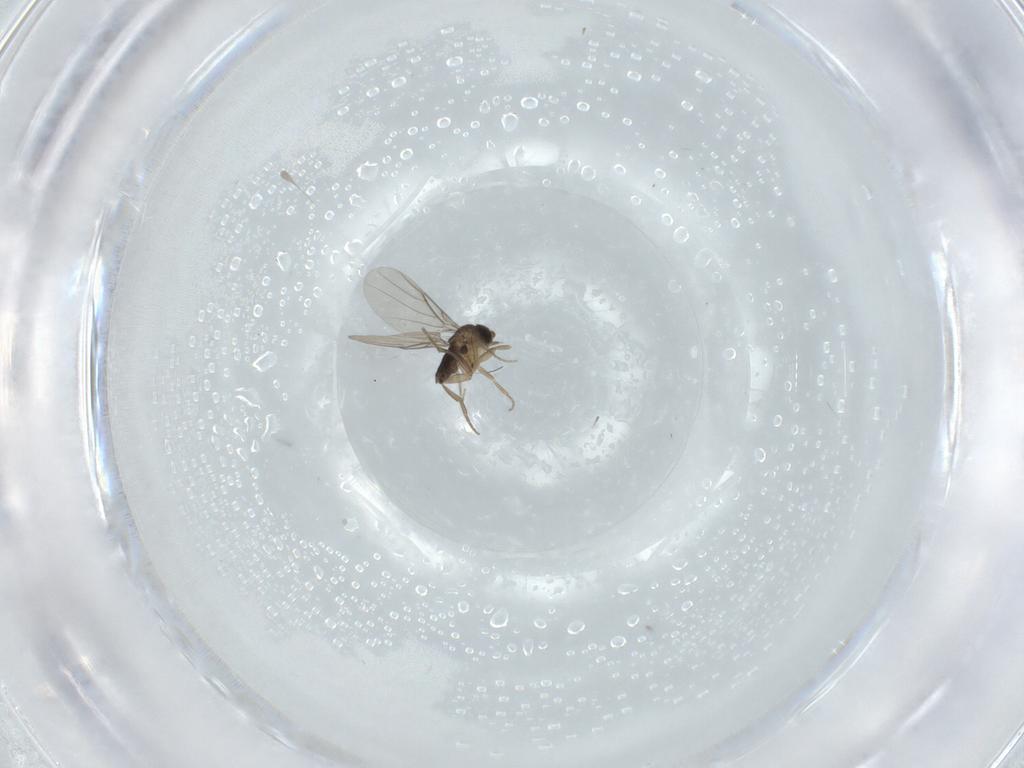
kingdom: Animalia
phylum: Arthropoda
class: Insecta
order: Diptera
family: Phoridae
